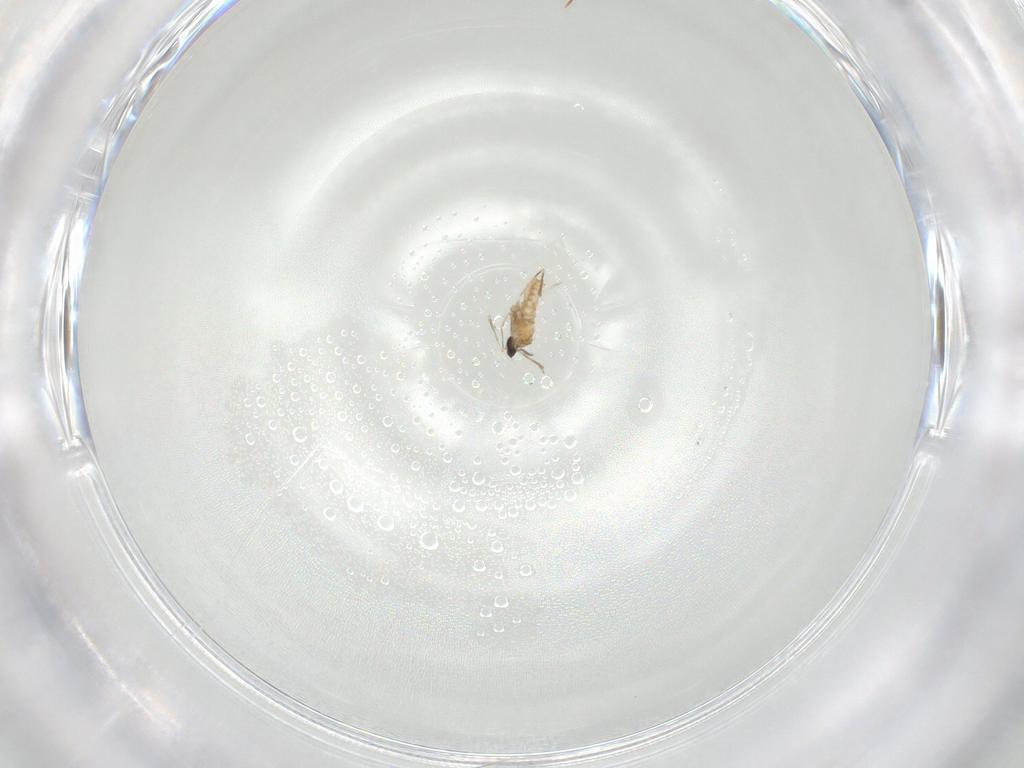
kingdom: Animalia
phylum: Arthropoda
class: Insecta
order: Diptera
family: Cecidomyiidae
